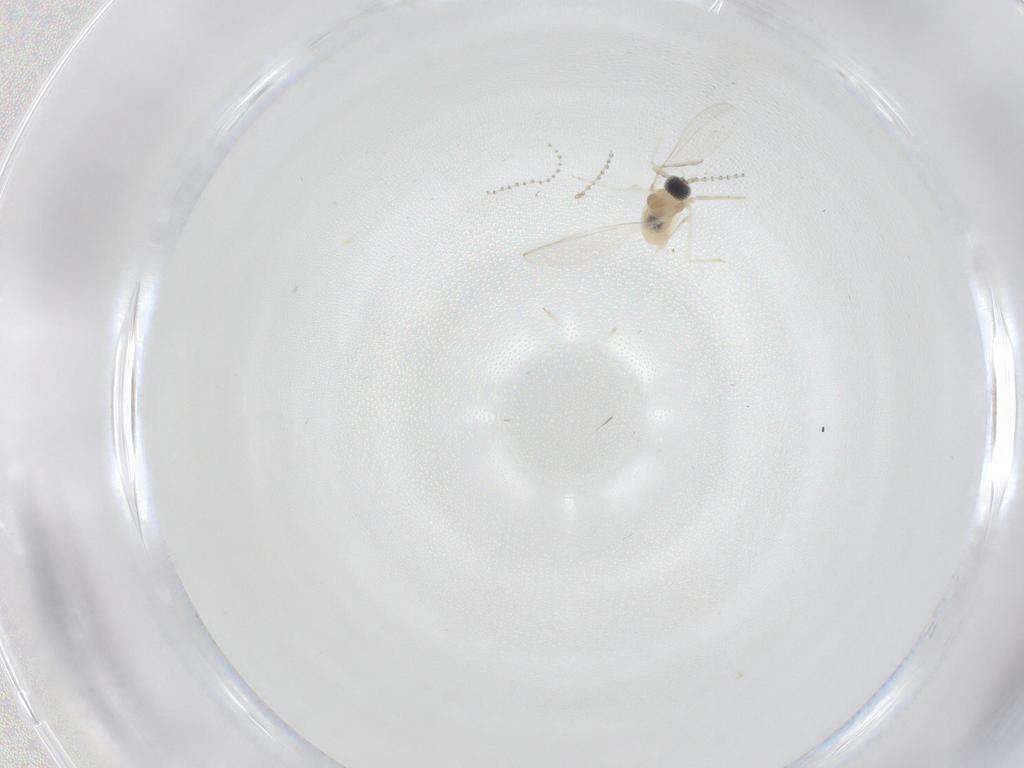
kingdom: Animalia
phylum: Arthropoda
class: Insecta
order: Diptera
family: Cecidomyiidae
